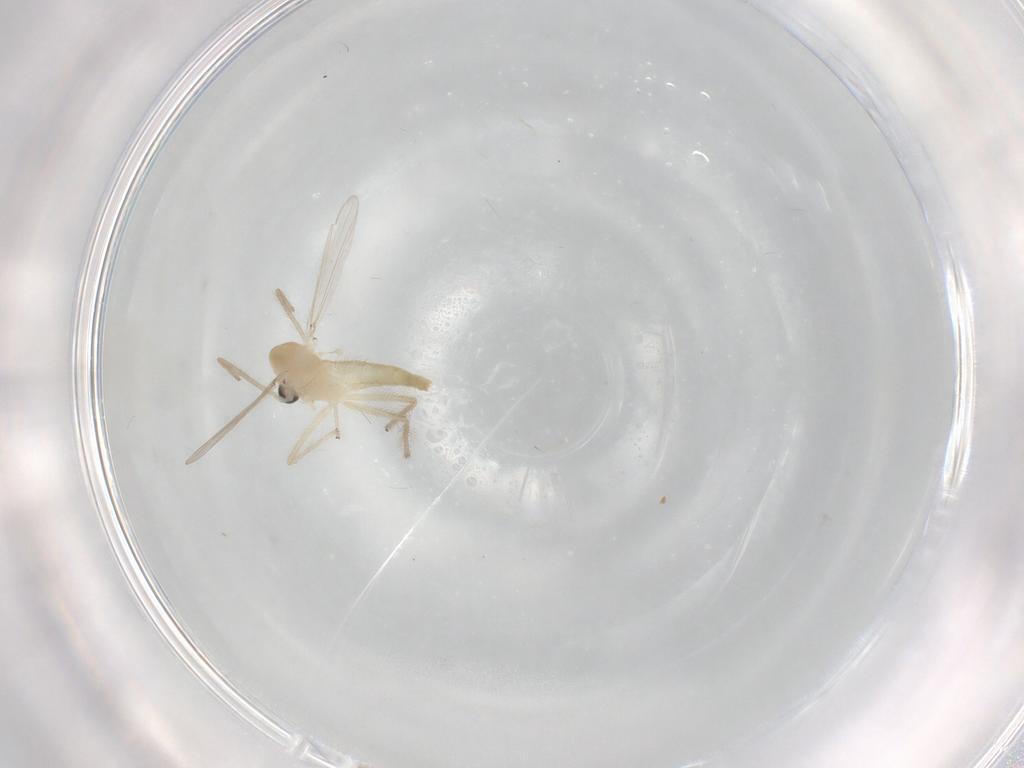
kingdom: Animalia
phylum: Arthropoda
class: Insecta
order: Diptera
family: Chironomidae
